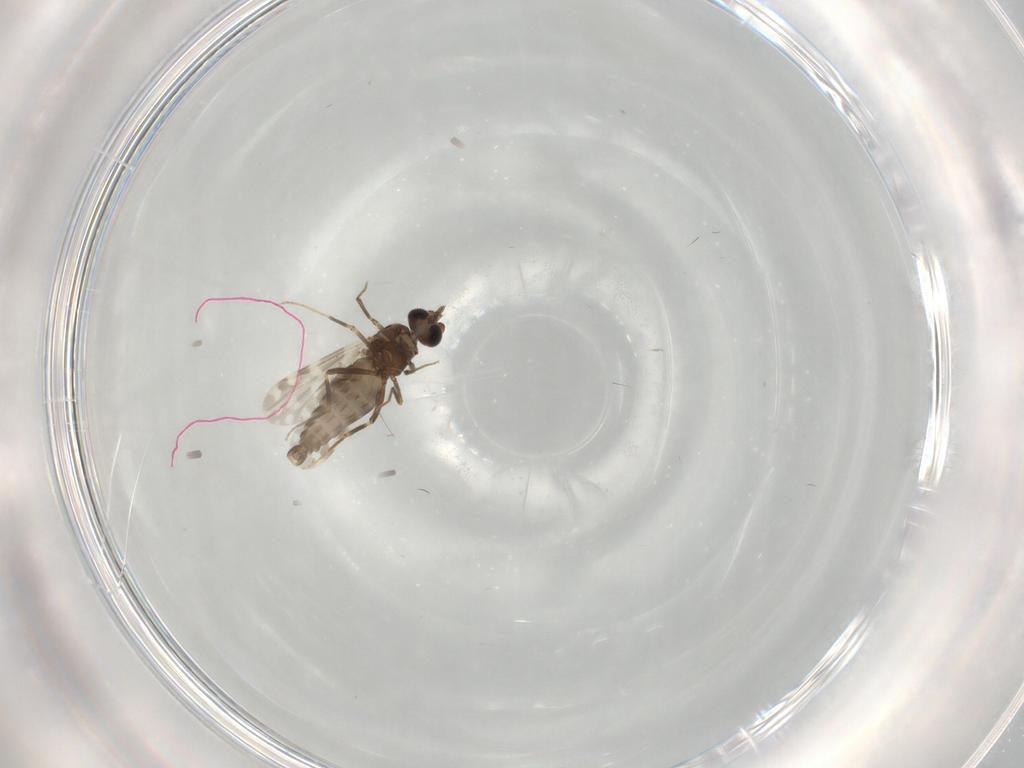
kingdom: Animalia
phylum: Arthropoda
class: Insecta
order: Diptera
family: Ceratopogonidae
